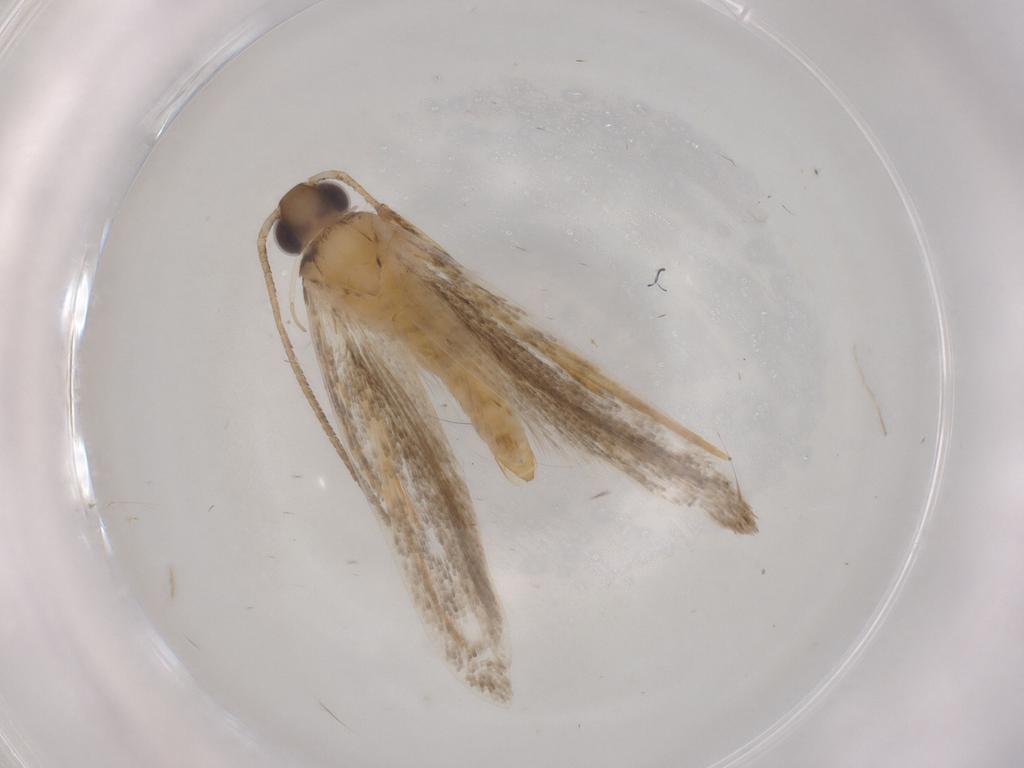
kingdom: Animalia
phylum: Arthropoda
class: Insecta
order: Lepidoptera
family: Autostichidae
